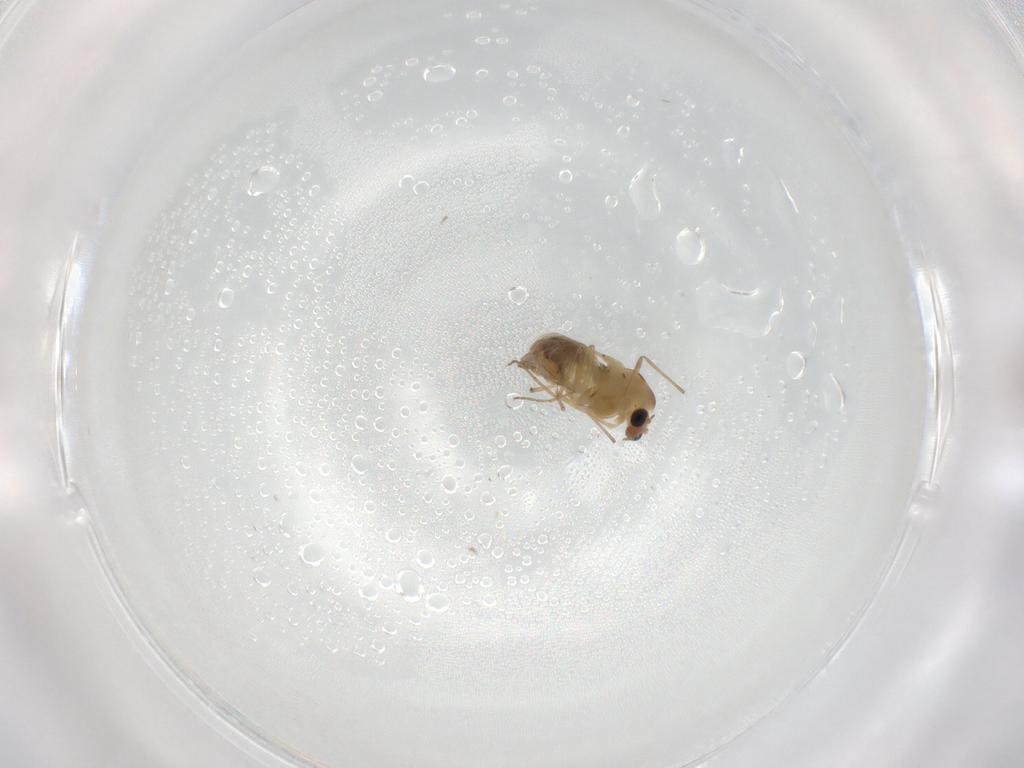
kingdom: Animalia
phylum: Arthropoda
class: Insecta
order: Diptera
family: Chironomidae
